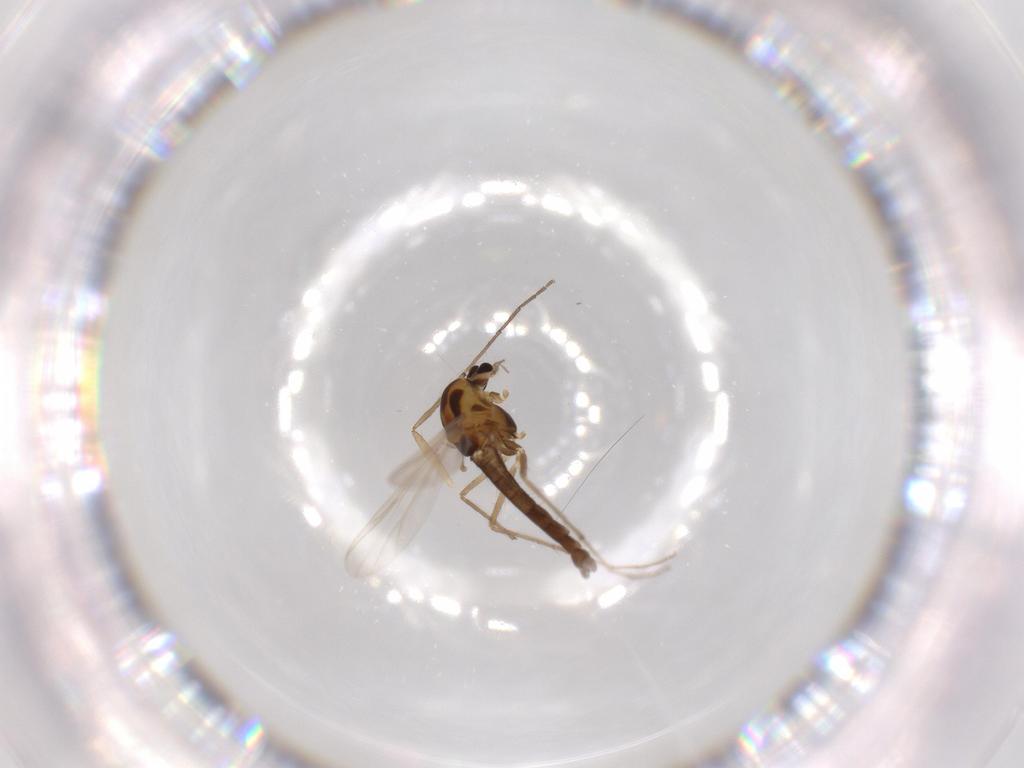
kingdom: Animalia
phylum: Arthropoda
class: Insecta
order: Diptera
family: Chironomidae
